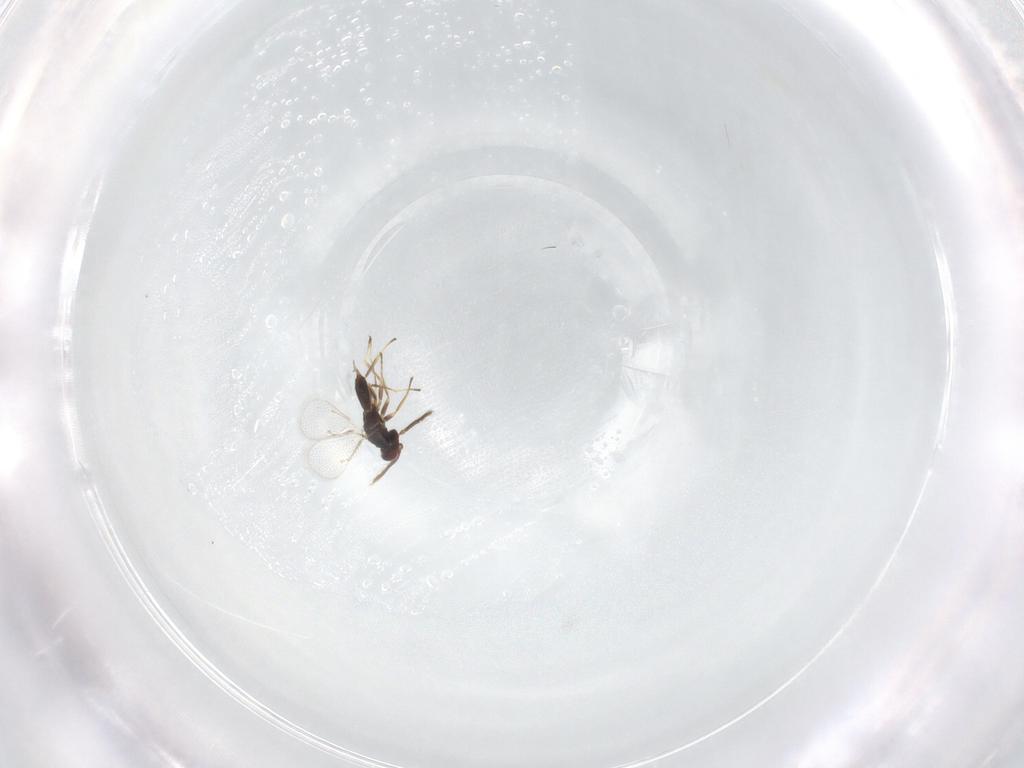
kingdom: Animalia
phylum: Arthropoda
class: Insecta
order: Hymenoptera
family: Eulophidae
